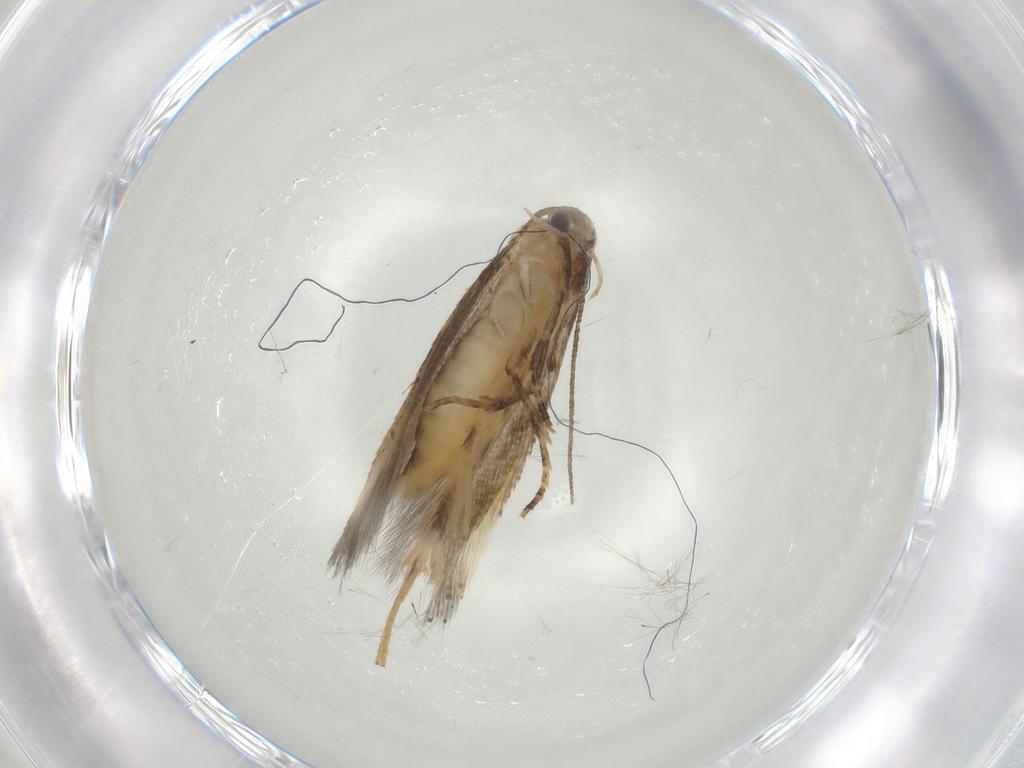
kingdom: Animalia
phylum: Arthropoda
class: Insecta
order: Lepidoptera
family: Elachistidae
